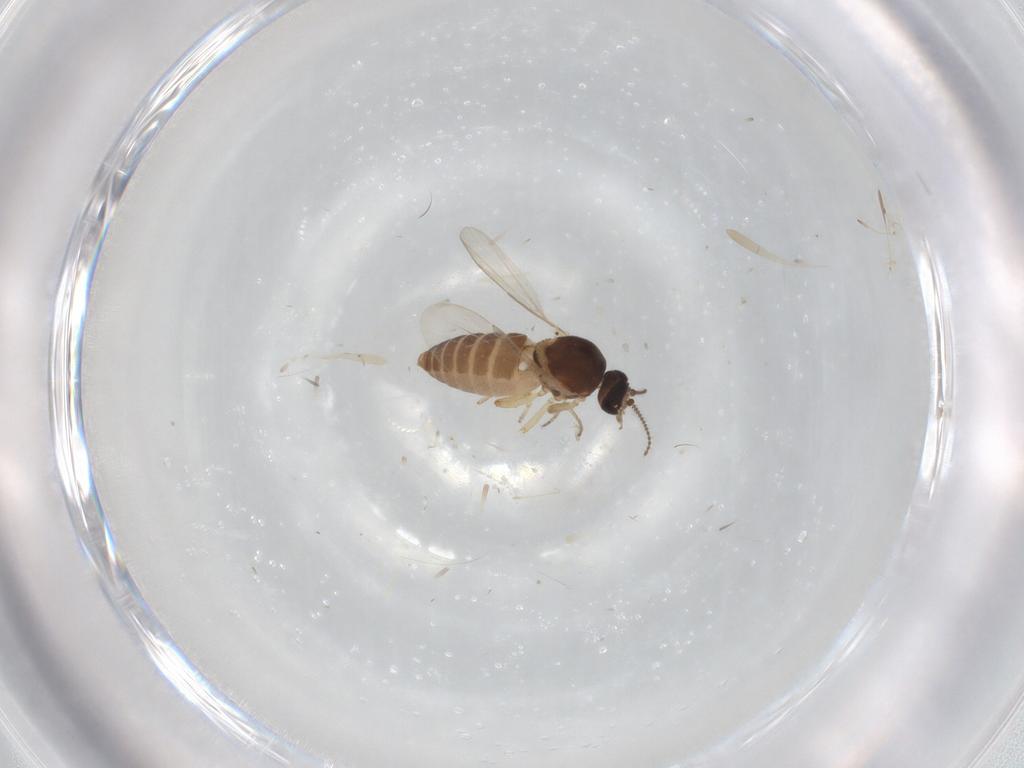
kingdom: Animalia
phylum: Arthropoda
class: Insecta
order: Diptera
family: Ceratopogonidae
